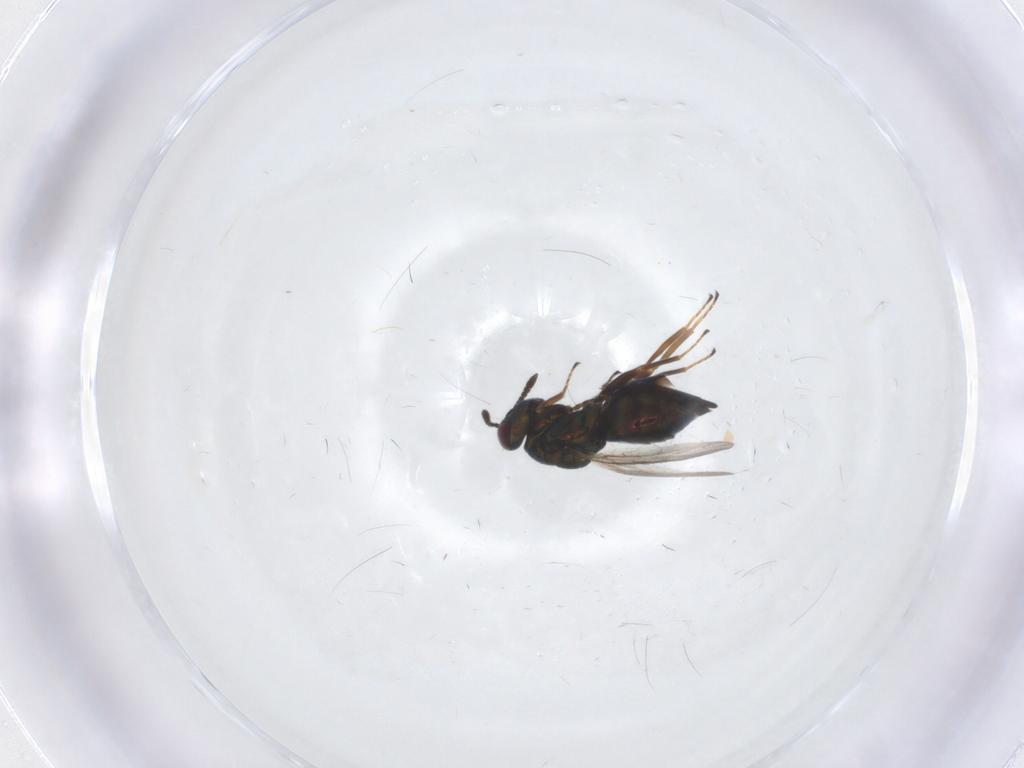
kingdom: Animalia
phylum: Arthropoda
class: Insecta
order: Hymenoptera
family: Pteromalidae
